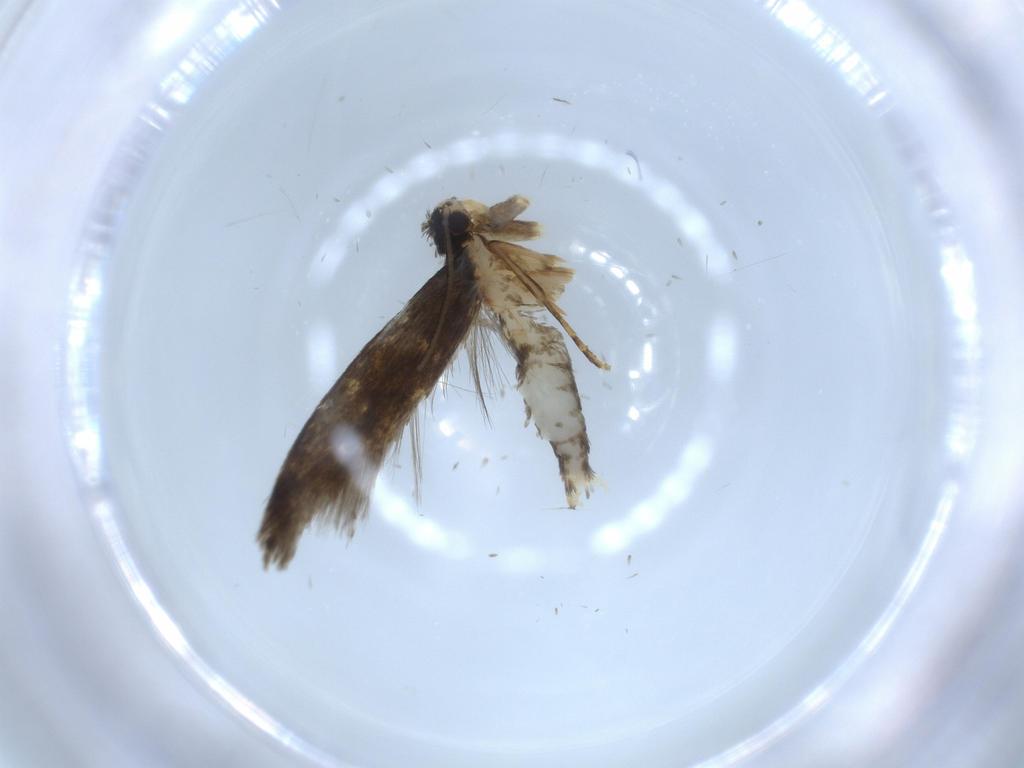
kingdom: Animalia
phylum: Arthropoda
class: Insecta
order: Lepidoptera
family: Tineidae
